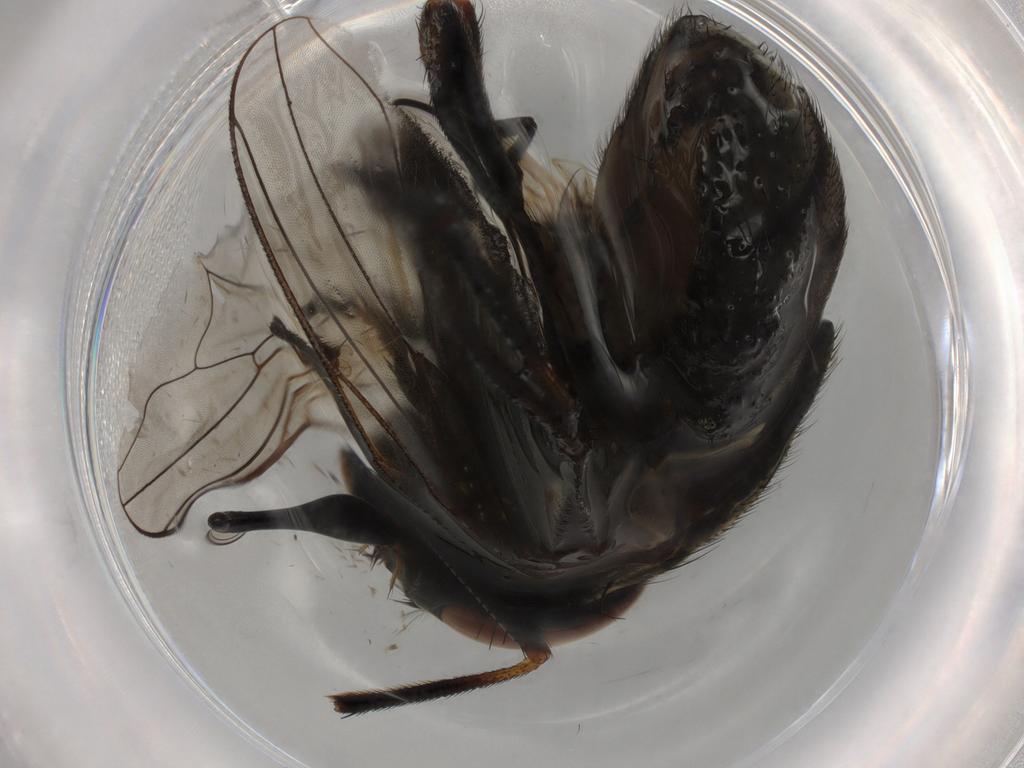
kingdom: Animalia
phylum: Arthropoda
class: Insecta
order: Diptera
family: Muscidae
